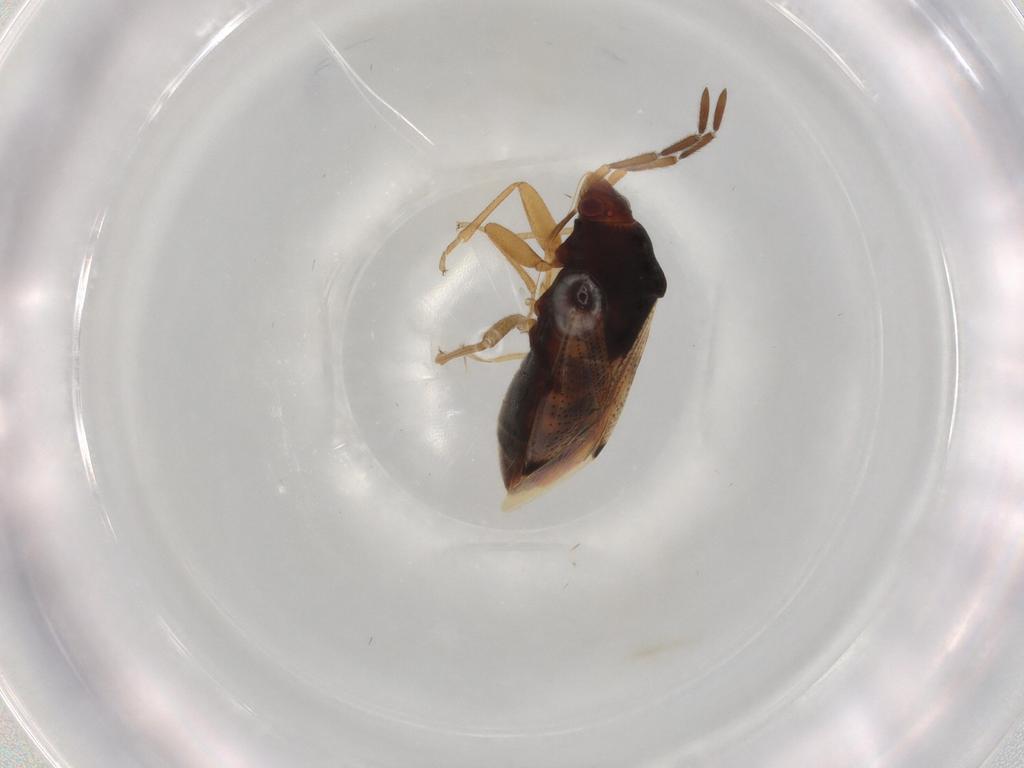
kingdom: Animalia
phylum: Arthropoda
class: Insecta
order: Hemiptera
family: Rhyparochromidae
